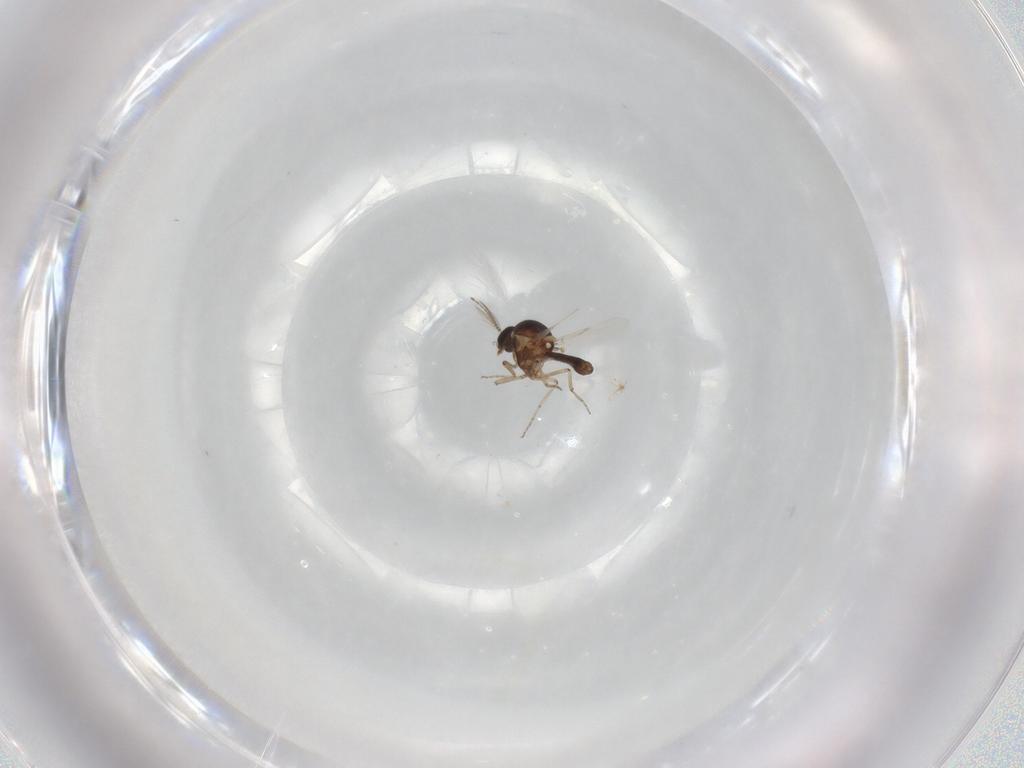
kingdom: Animalia
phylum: Arthropoda
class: Insecta
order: Diptera
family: Ceratopogonidae
